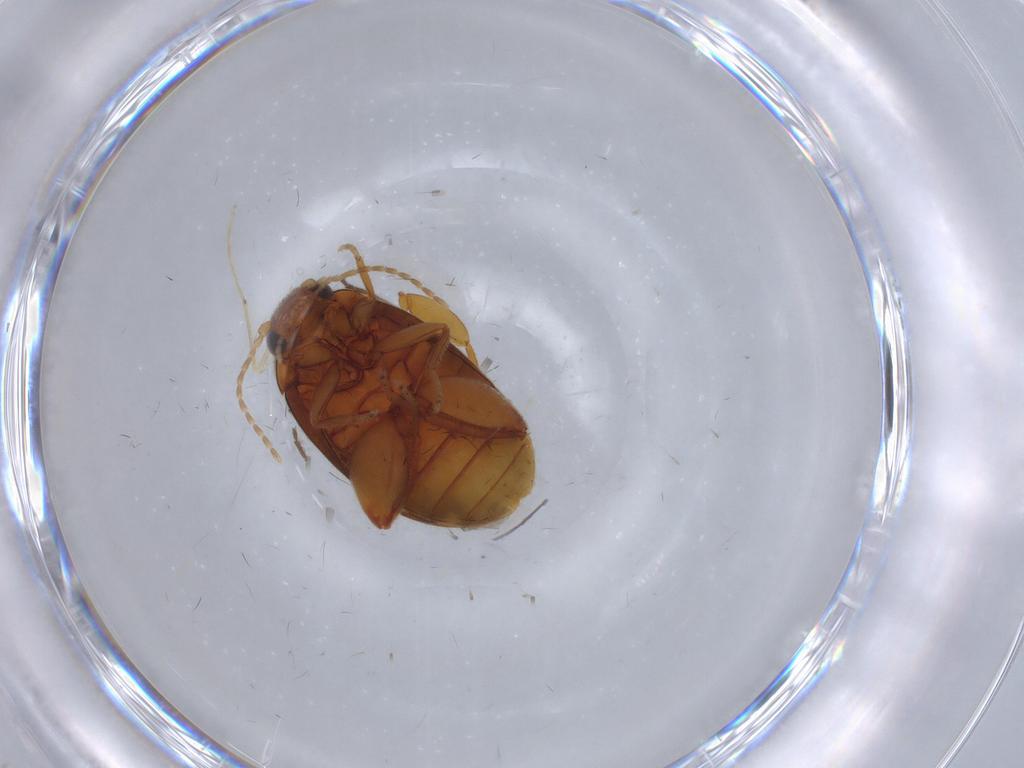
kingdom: Animalia
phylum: Arthropoda
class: Insecta
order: Coleoptera
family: Scirtidae
